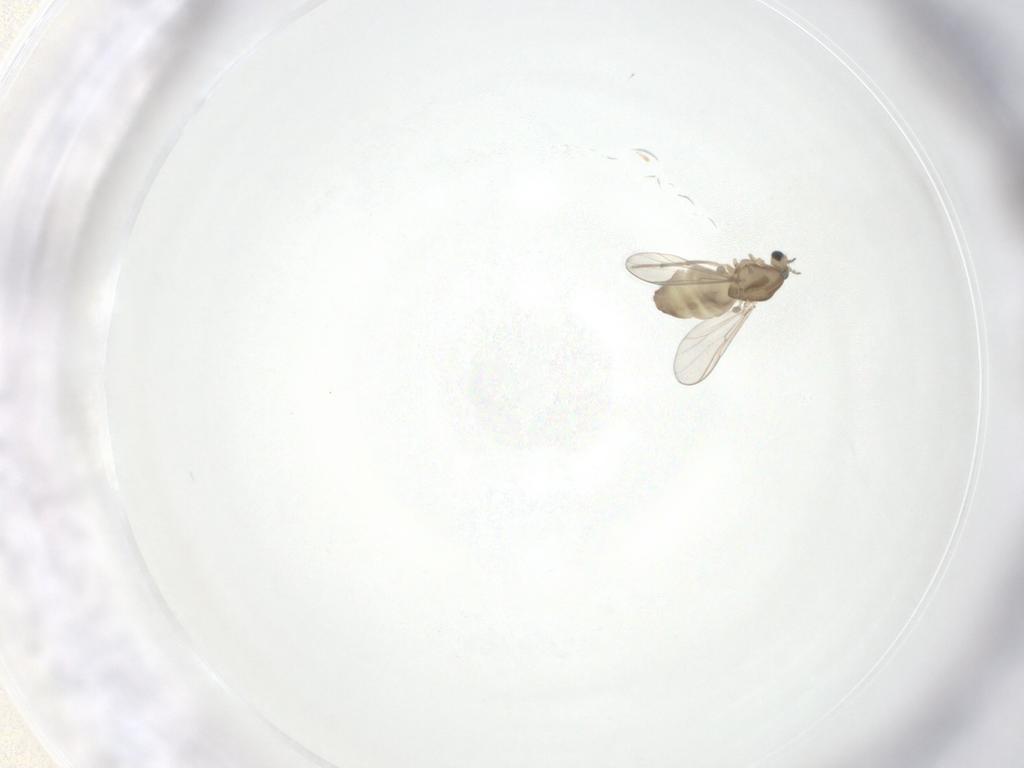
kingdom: Animalia
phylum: Arthropoda
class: Insecta
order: Diptera
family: Chironomidae
